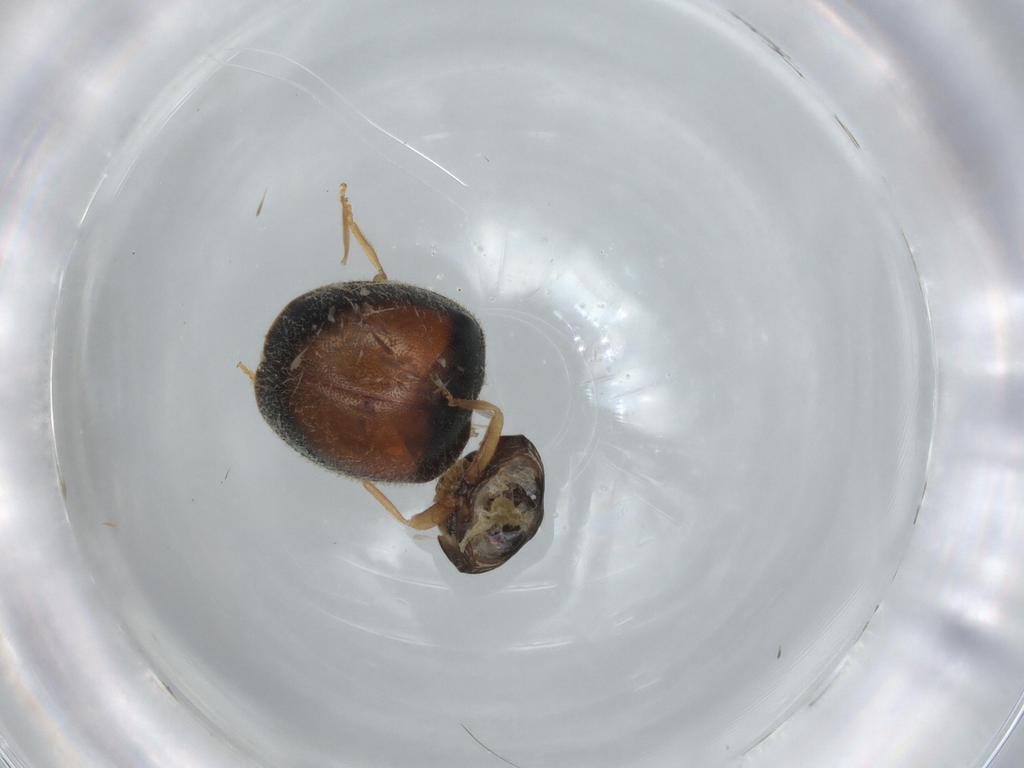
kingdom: Animalia
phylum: Arthropoda
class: Insecta
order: Coleoptera
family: Coccinellidae
